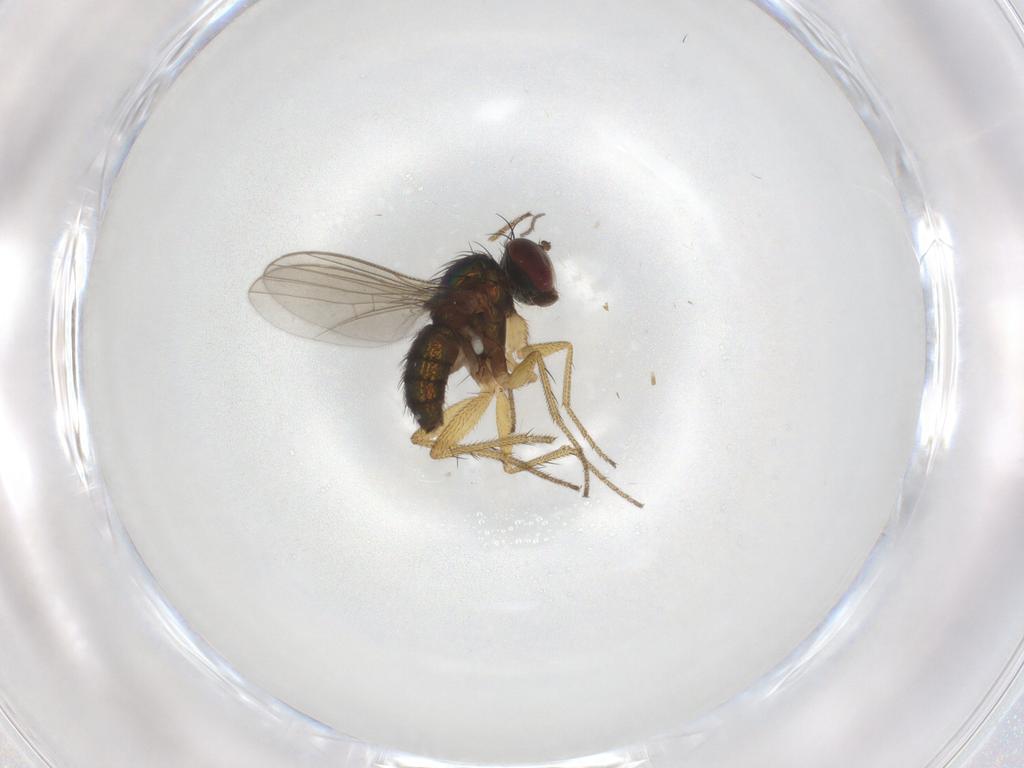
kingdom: Animalia
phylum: Arthropoda
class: Insecta
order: Diptera
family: Sciaridae
